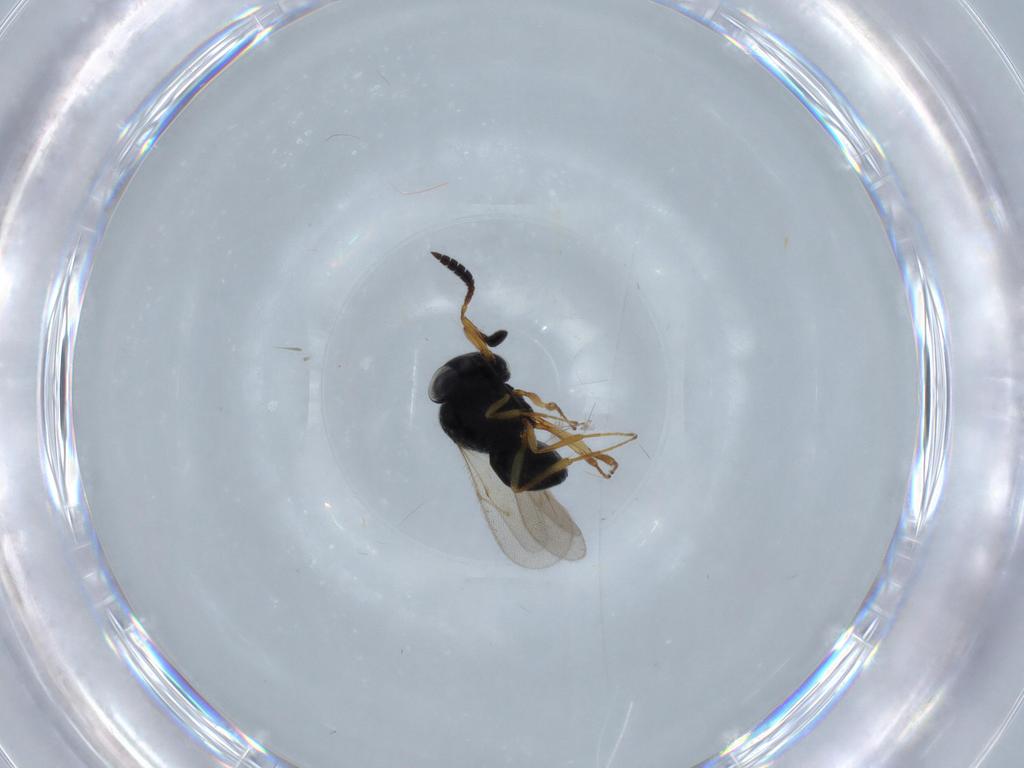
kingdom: Animalia
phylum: Arthropoda
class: Insecta
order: Hymenoptera
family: Scelionidae
